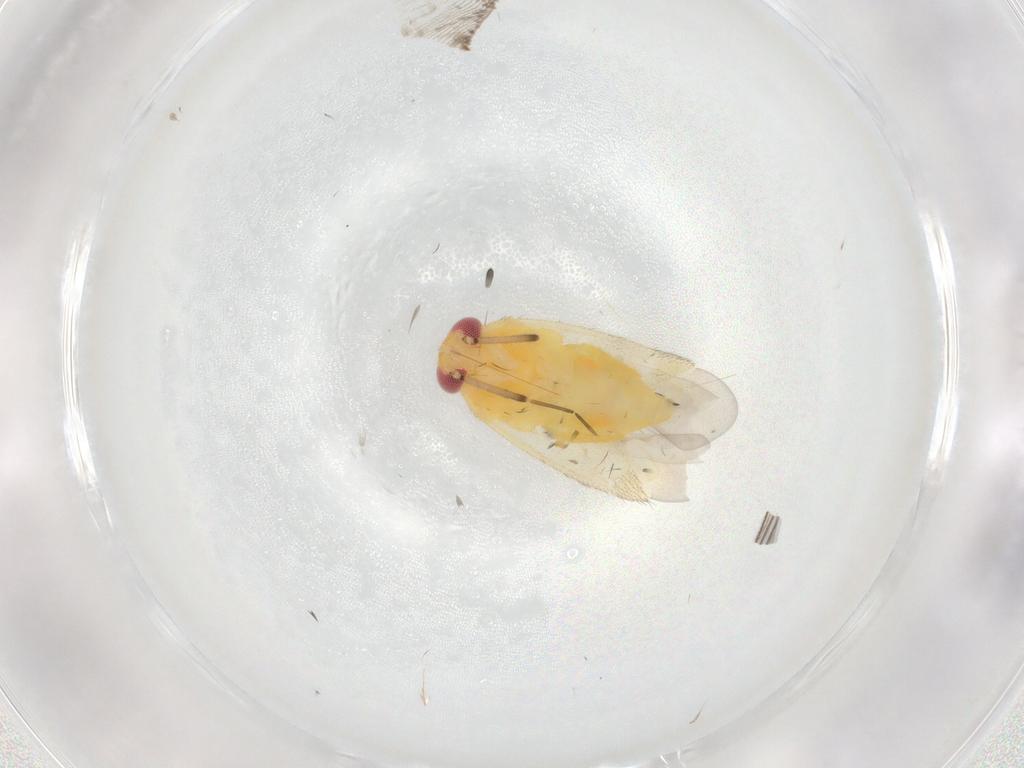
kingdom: Animalia
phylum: Arthropoda
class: Insecta
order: Hemiptera
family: Miridae
